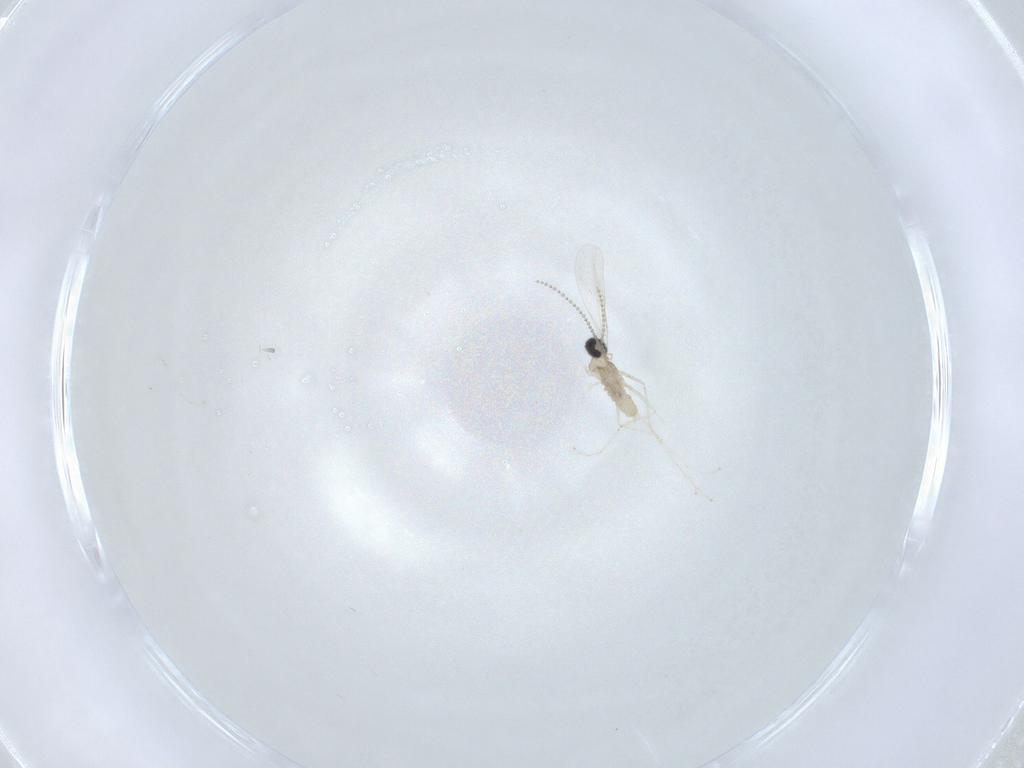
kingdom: Animalia
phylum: Arthropoda
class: Insecta
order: Diptera
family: Cecidomyiidae
